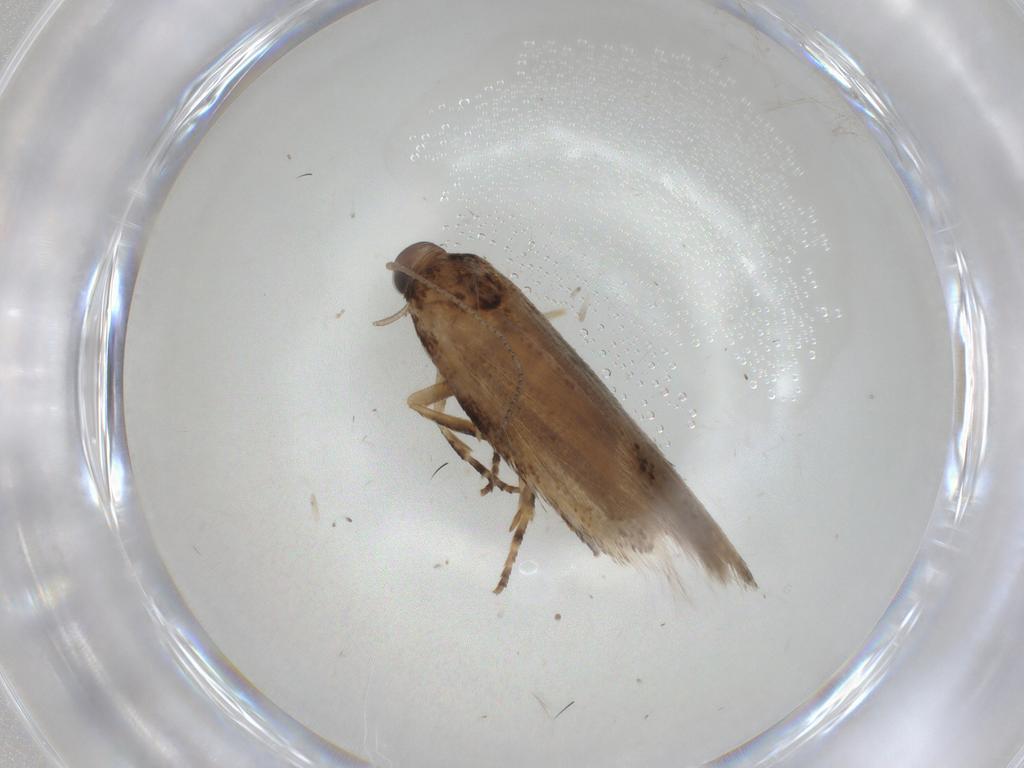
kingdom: Animalia
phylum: Arthropoda
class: Insecta
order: Lepidoptera
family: Gelechiidae
